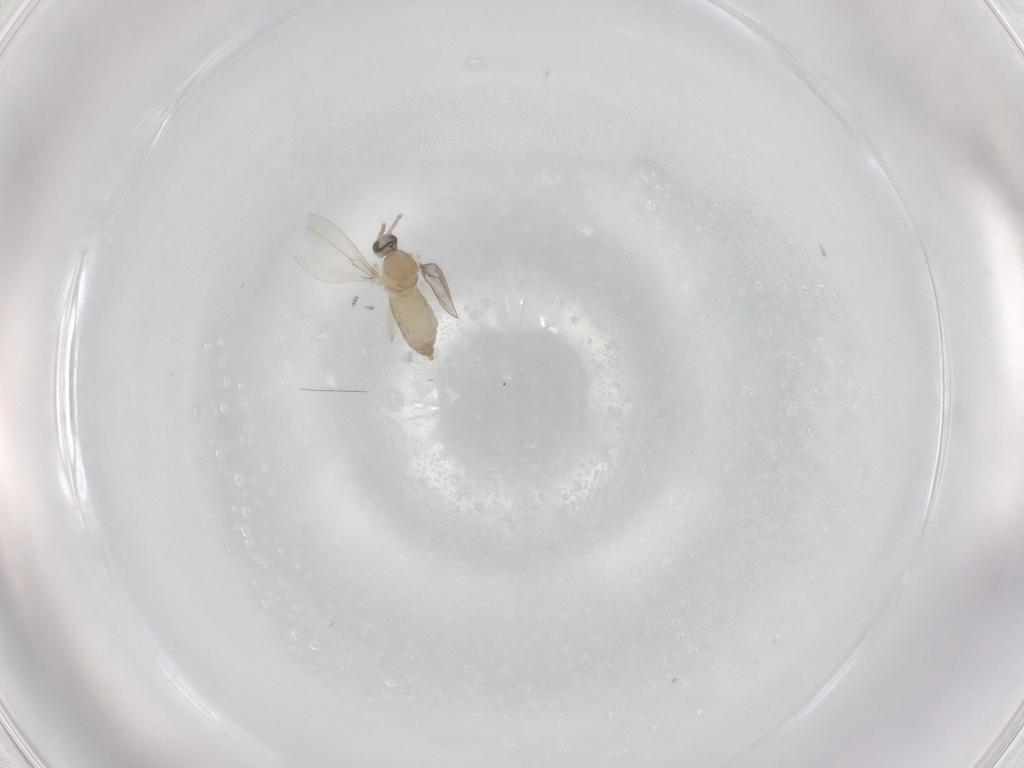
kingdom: Animalia
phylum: Arthropoda
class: Insecta
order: Diptera
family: Cecidomyiidae
